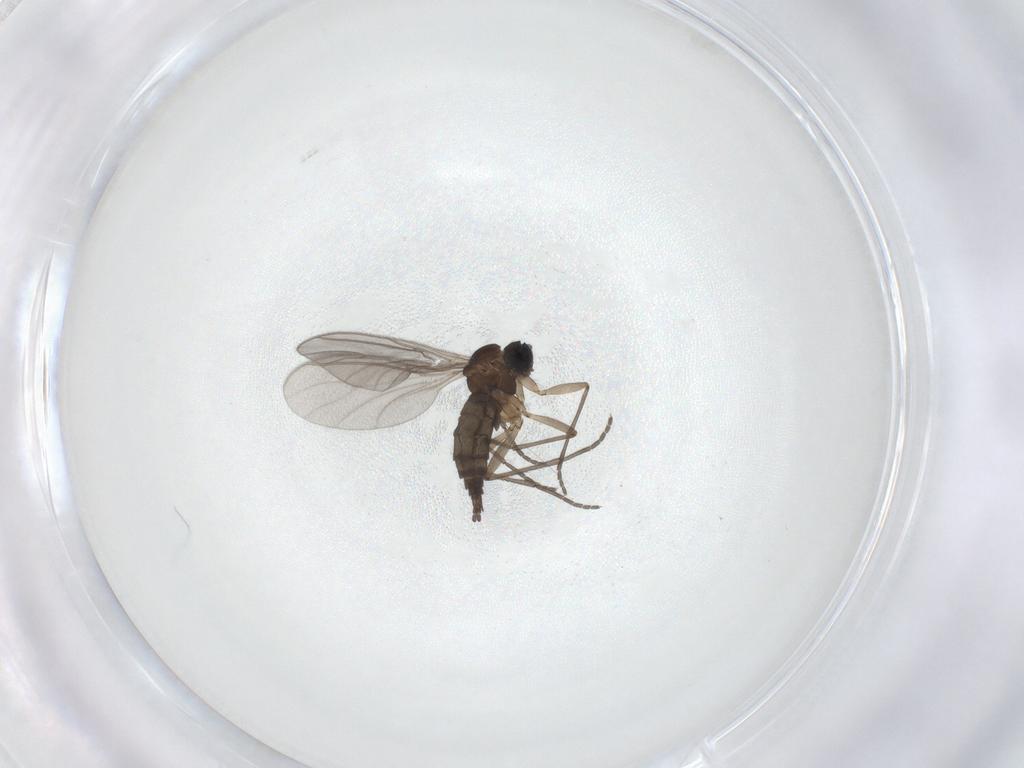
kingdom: Animalia
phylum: Arthropoda
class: Insecta
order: Diptera
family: Sciaridae
